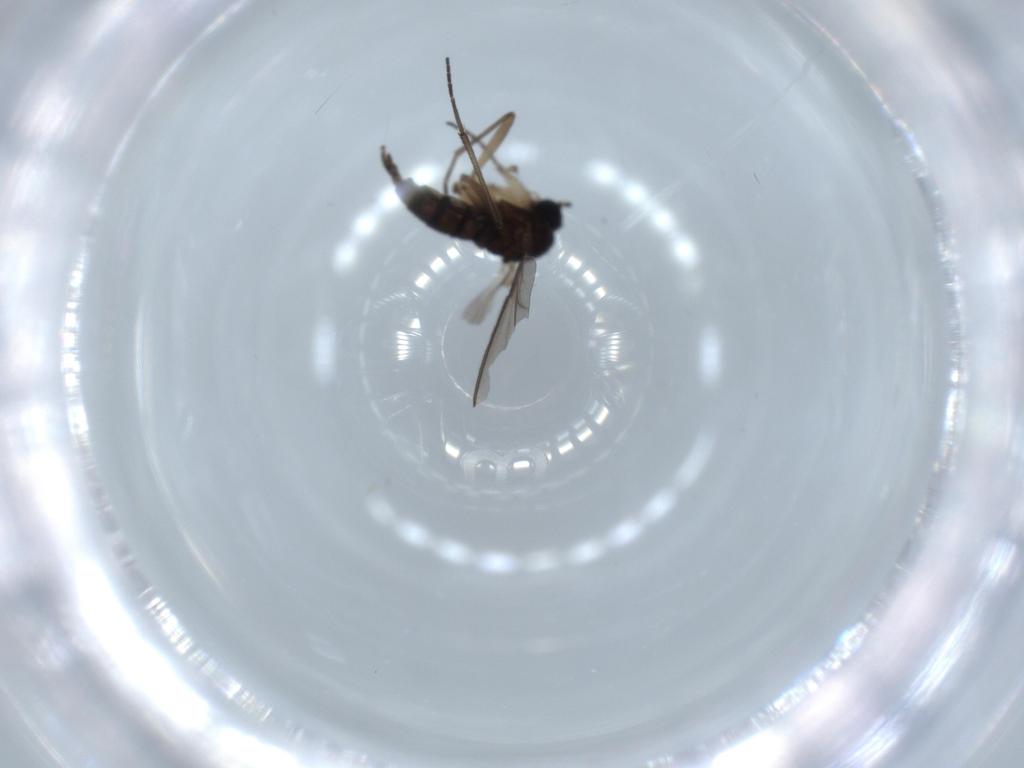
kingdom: Animalia
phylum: Arthropoda
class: Insecta
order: Diptera
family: Sciaridae
